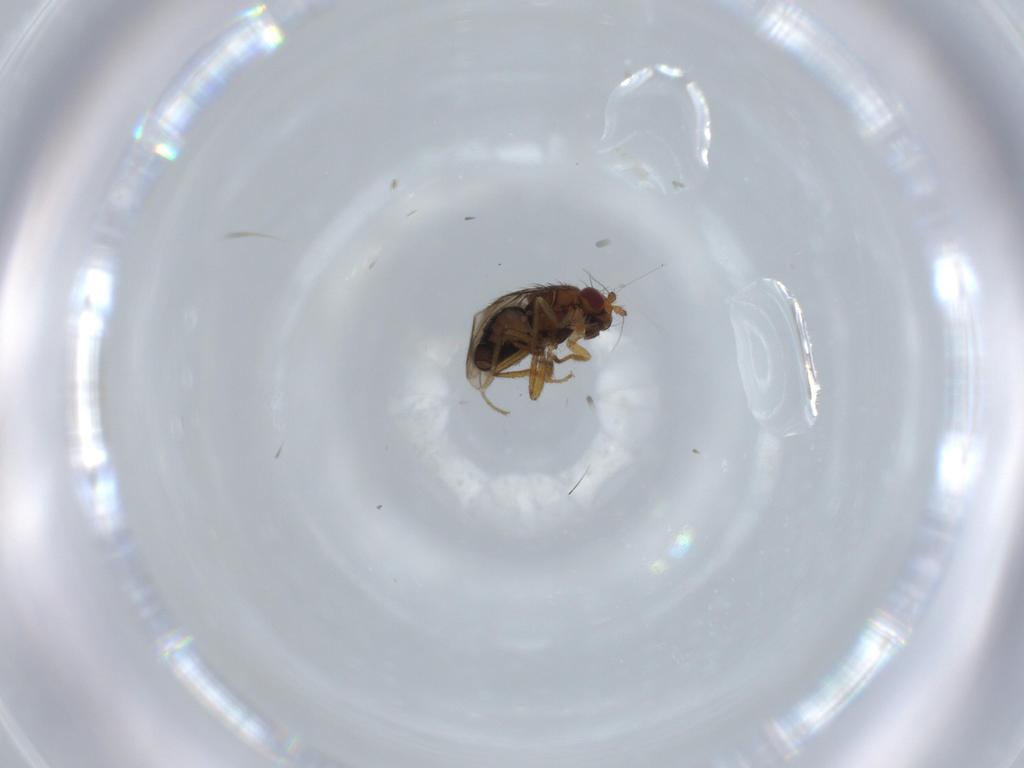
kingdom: Animalia
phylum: Arthropoda
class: Insecta
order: Diptera
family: Sphaeroceridae
